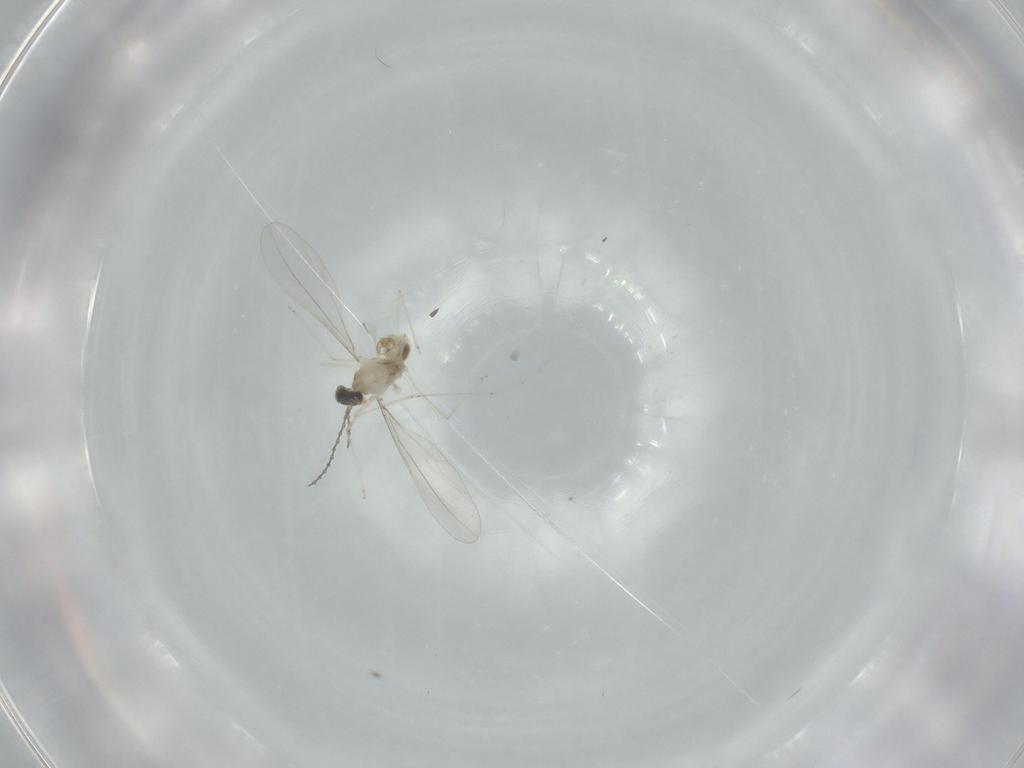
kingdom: Animalia
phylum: Arthropoda
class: Insecta
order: Diptera
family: Cecidomyiidae
